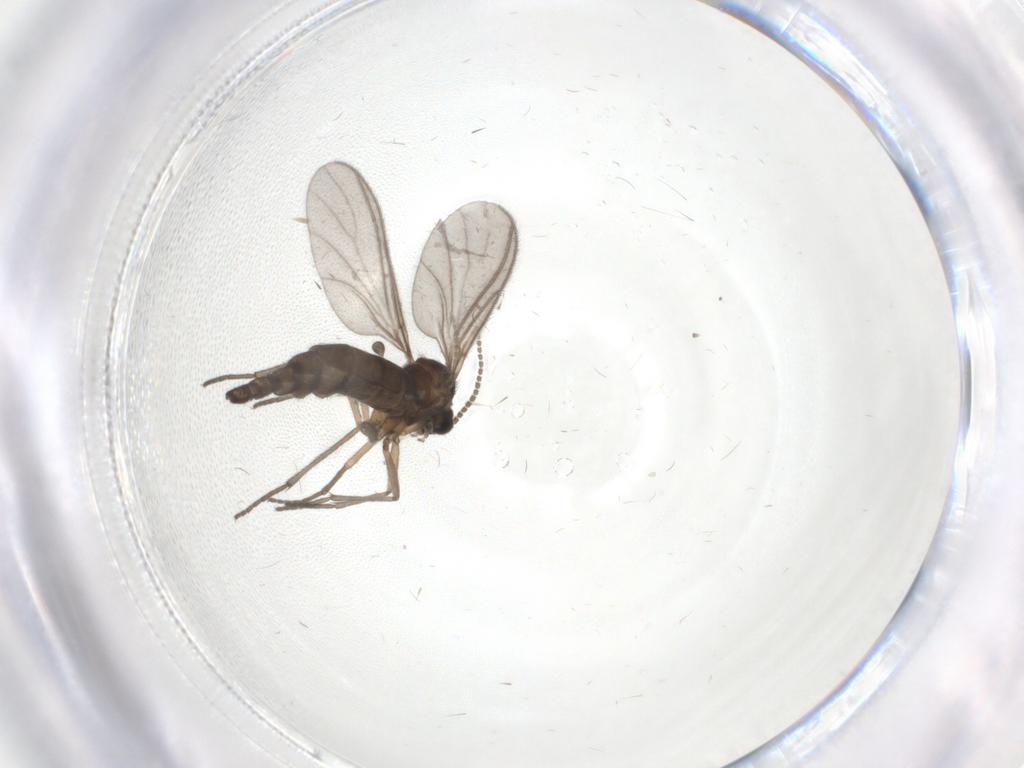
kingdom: Animalia
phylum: Arthropoda
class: Insecta
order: Diptera
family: Sciaridae
